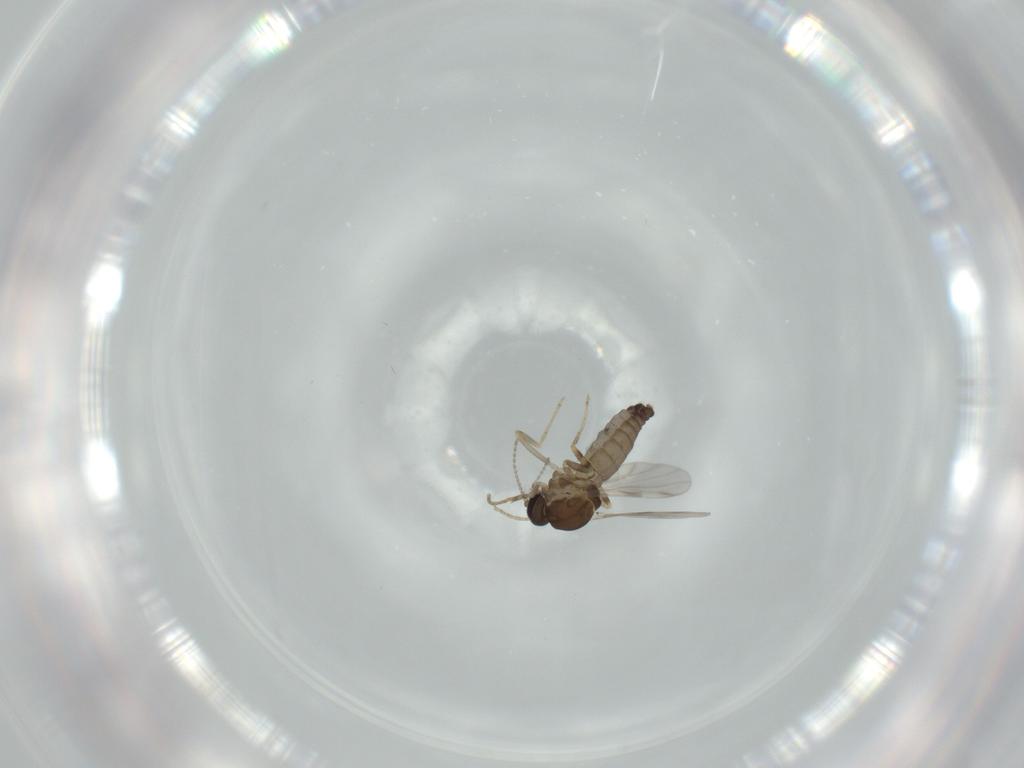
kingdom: Animalia
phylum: Arthropoda
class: Insecta
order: Diptera
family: Ceratopogonidae
